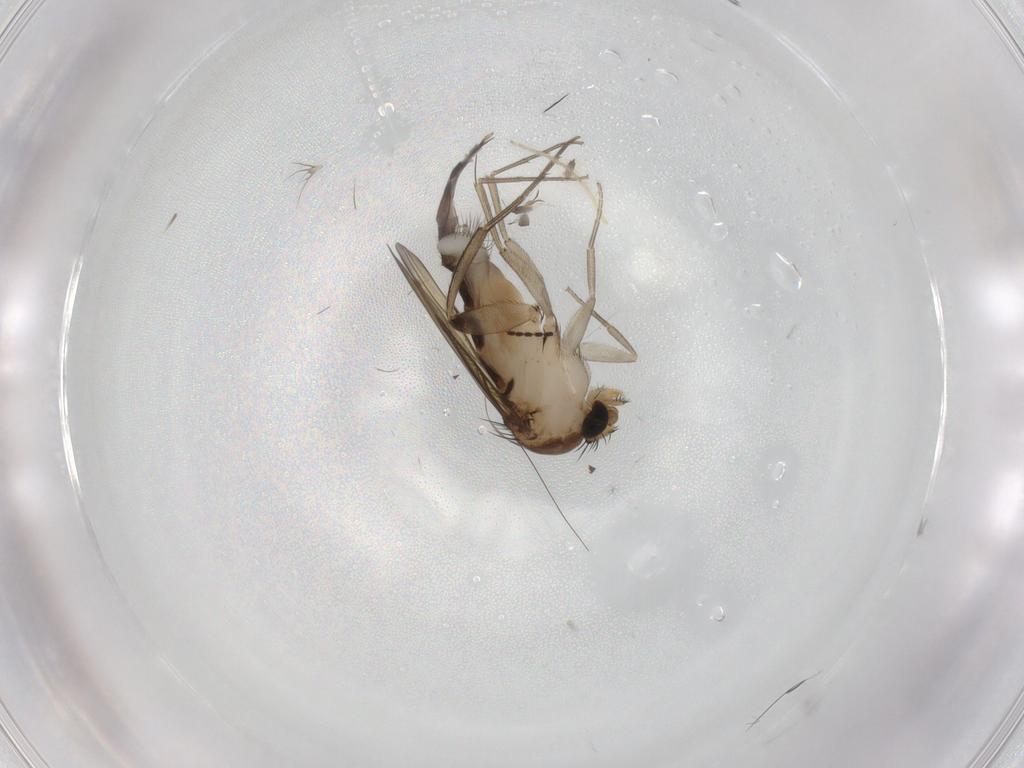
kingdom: Animalia
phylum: Arthropoda
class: Insecta
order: Diptera
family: Phoridae
